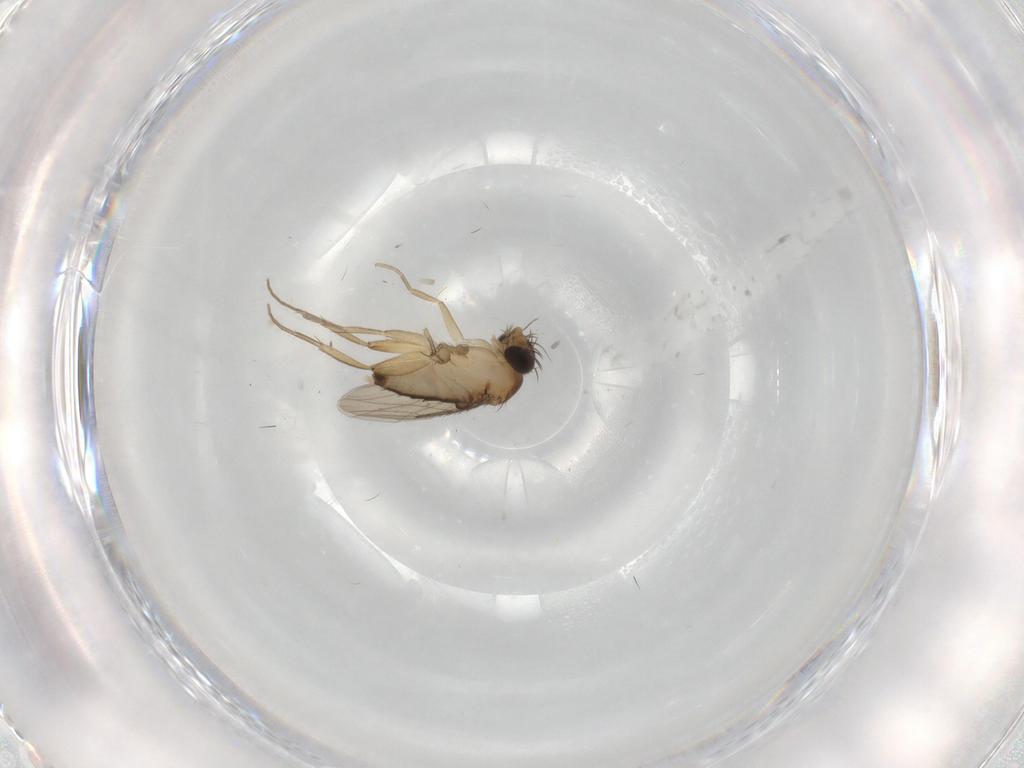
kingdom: Animalia
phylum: Arthropoda
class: Insecta
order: Diptera
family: Phoridae
